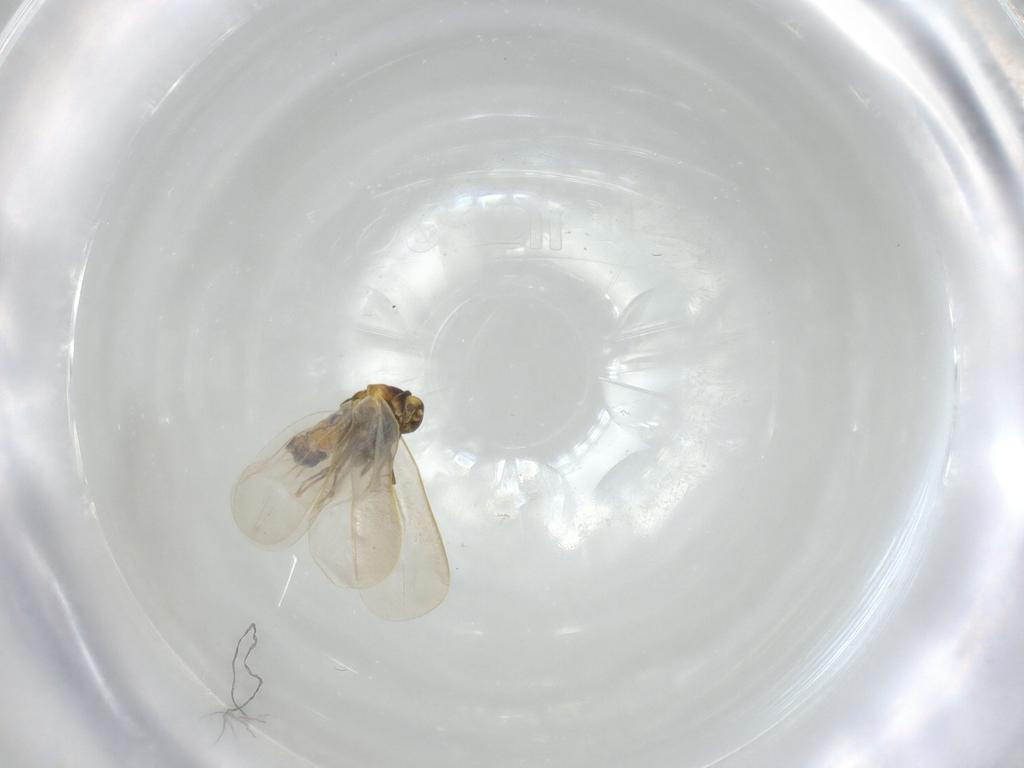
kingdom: Animalia
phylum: Arthropoda
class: Insecta
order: Hemiptera
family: Aleyrodidae
